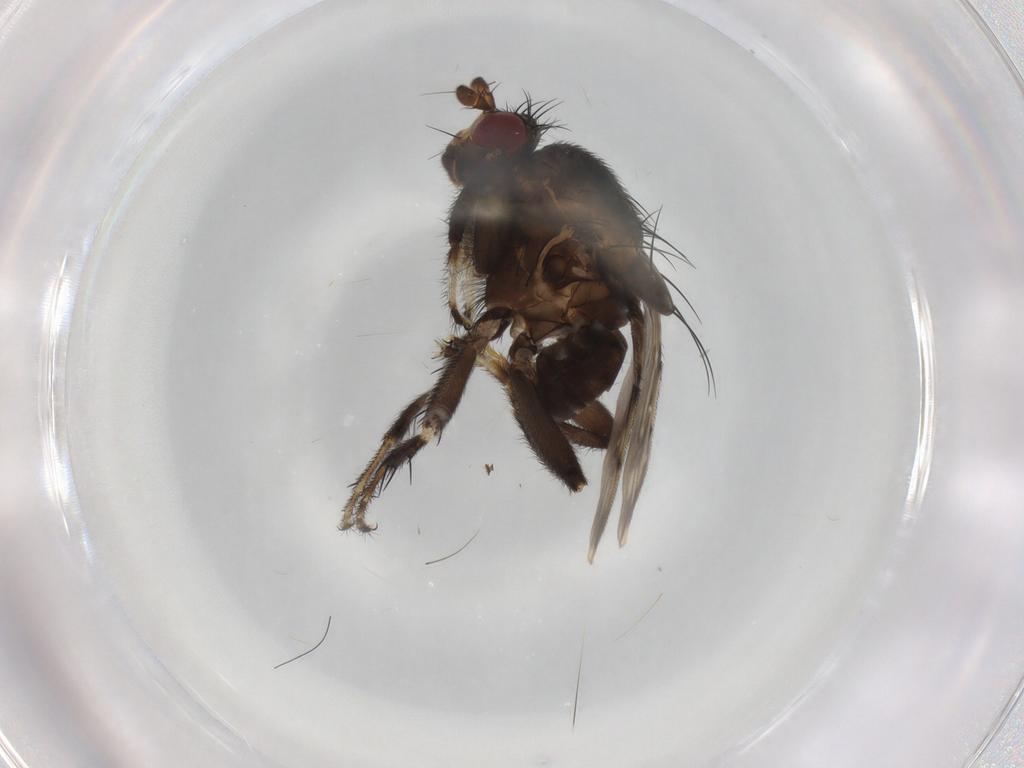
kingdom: Animalia
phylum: Arthropoda
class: Insecta
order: Diptera
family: Sphaeroceridae
